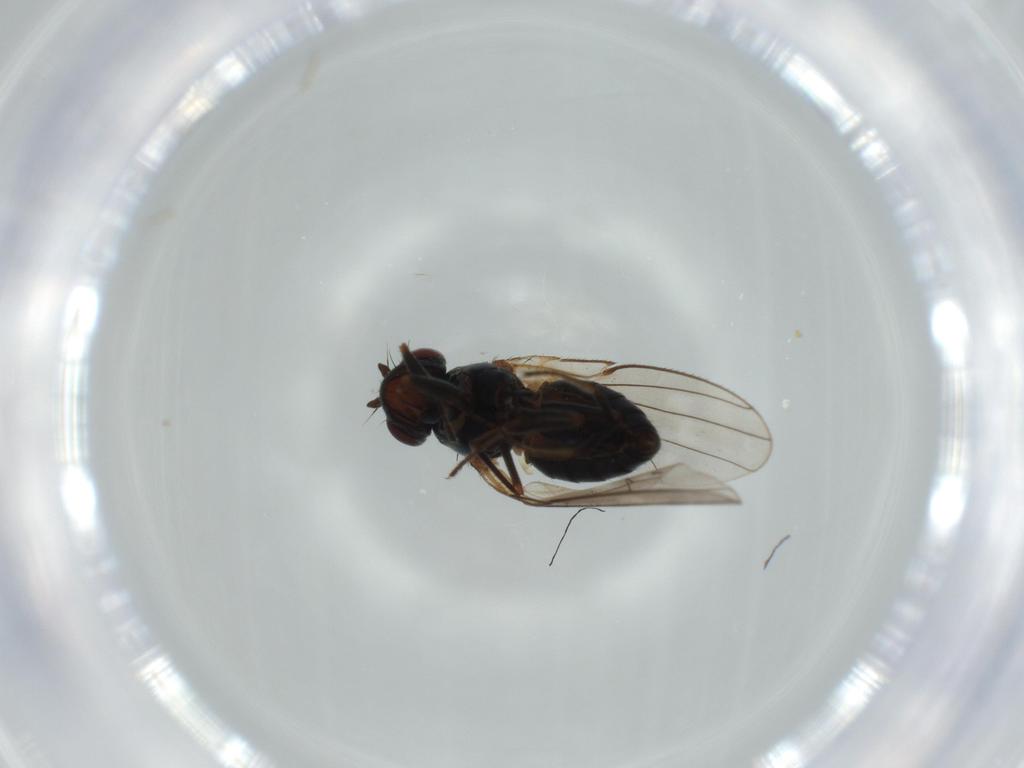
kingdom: Animalia
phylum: Arthropoda
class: Insecta
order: Diptera
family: Ephydridae
